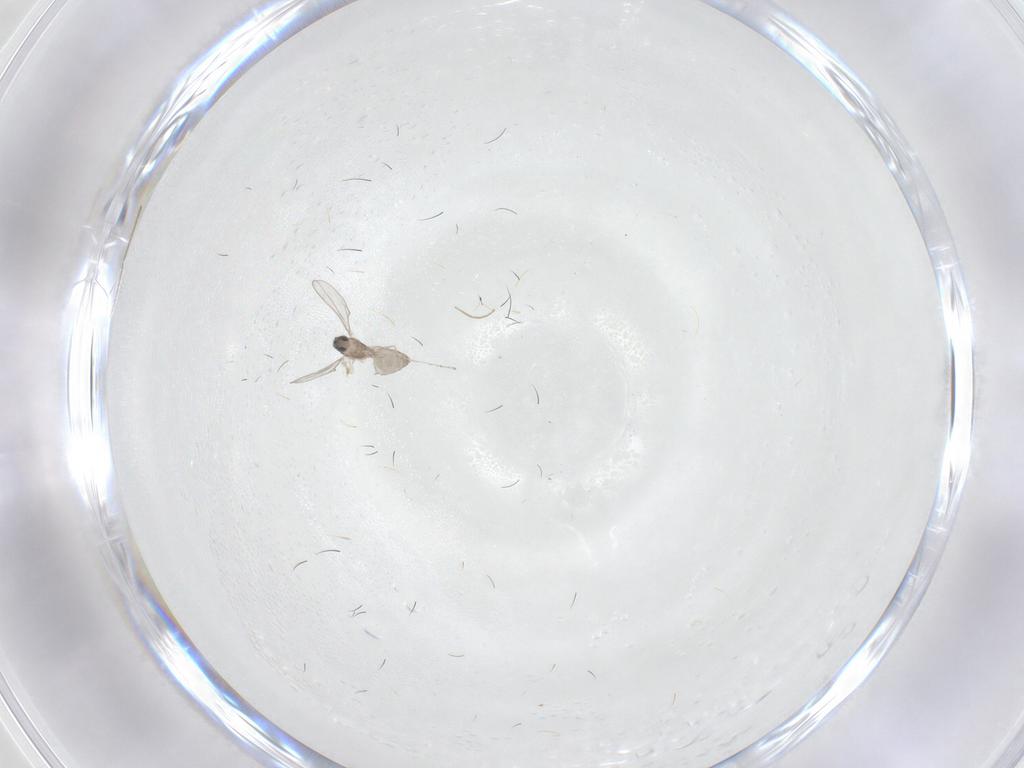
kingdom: Animalia
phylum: Arthropoda
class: Insecta
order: Diptera
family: Chironomidae
